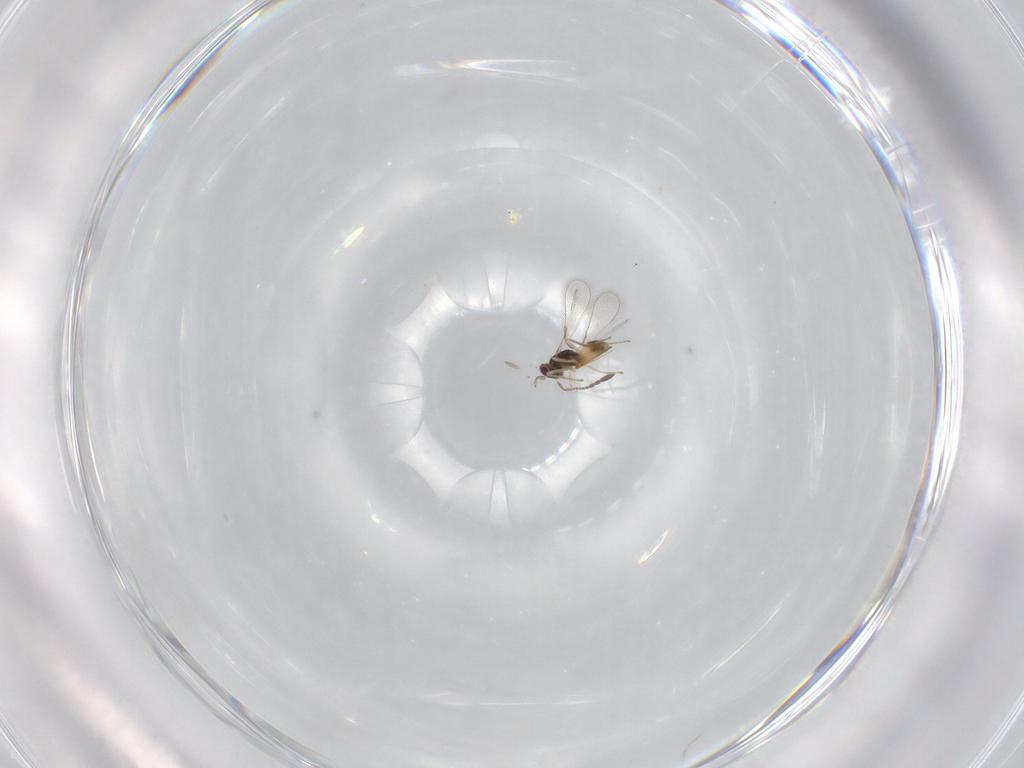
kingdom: Animalia
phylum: Arthropoda
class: Insecta
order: Hymenoptera
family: Mymaridae
